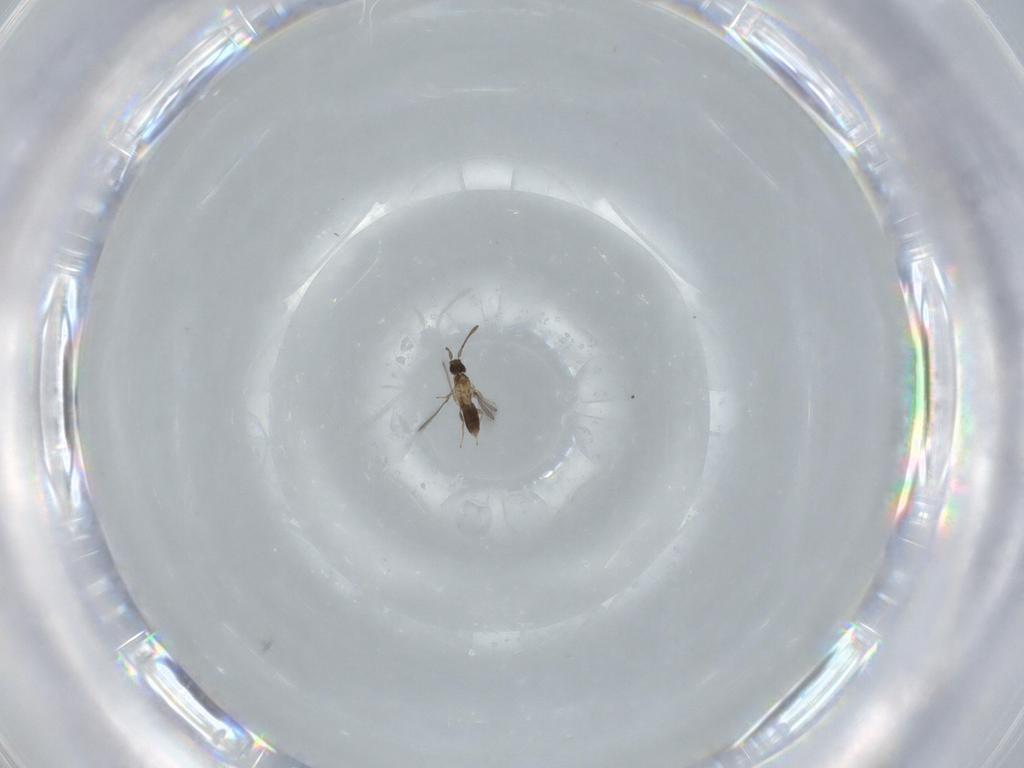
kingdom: Animalia
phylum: Arthropoda
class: Insecta
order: Hymenoptera
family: Mymaridae
